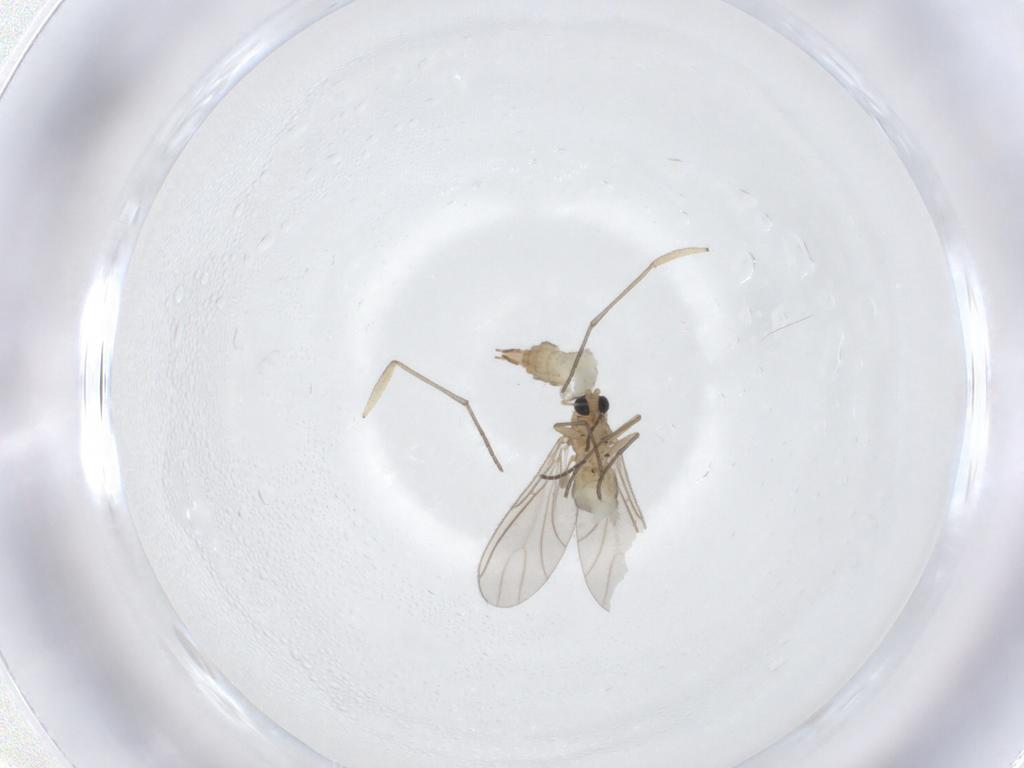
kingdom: Animalia
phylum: Arthropoda
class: Insecta
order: Diptera
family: Sciaridae
